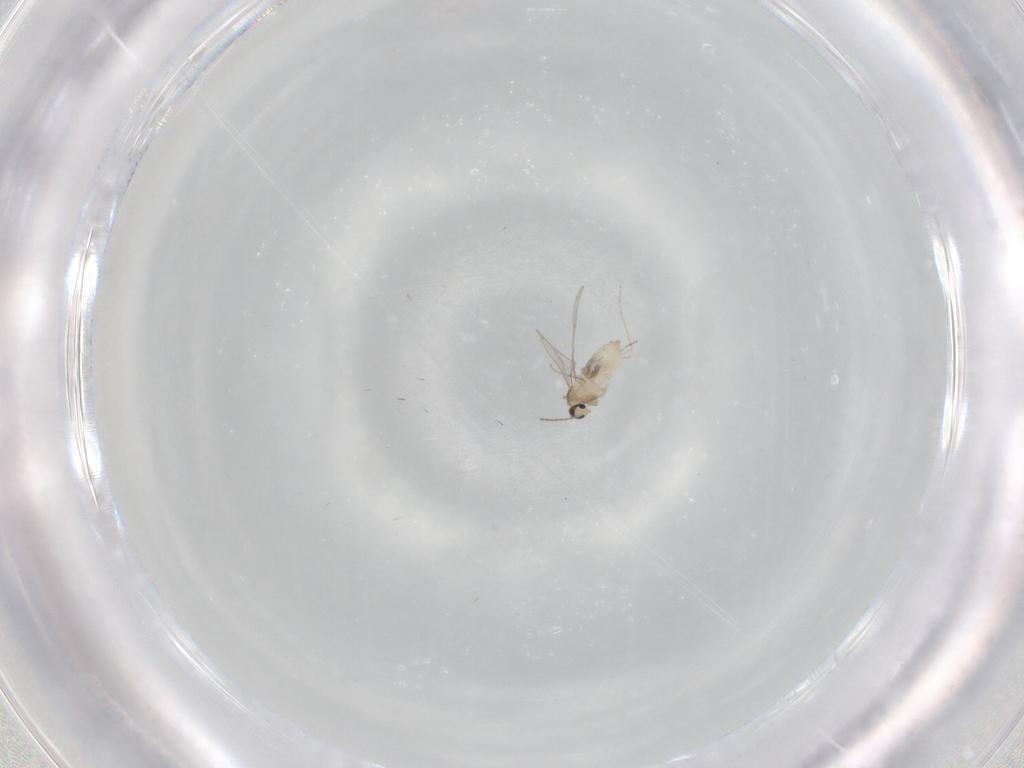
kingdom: Animalia
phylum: Arthropoda
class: Insecta
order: Diptera
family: Cecidomyiidae
